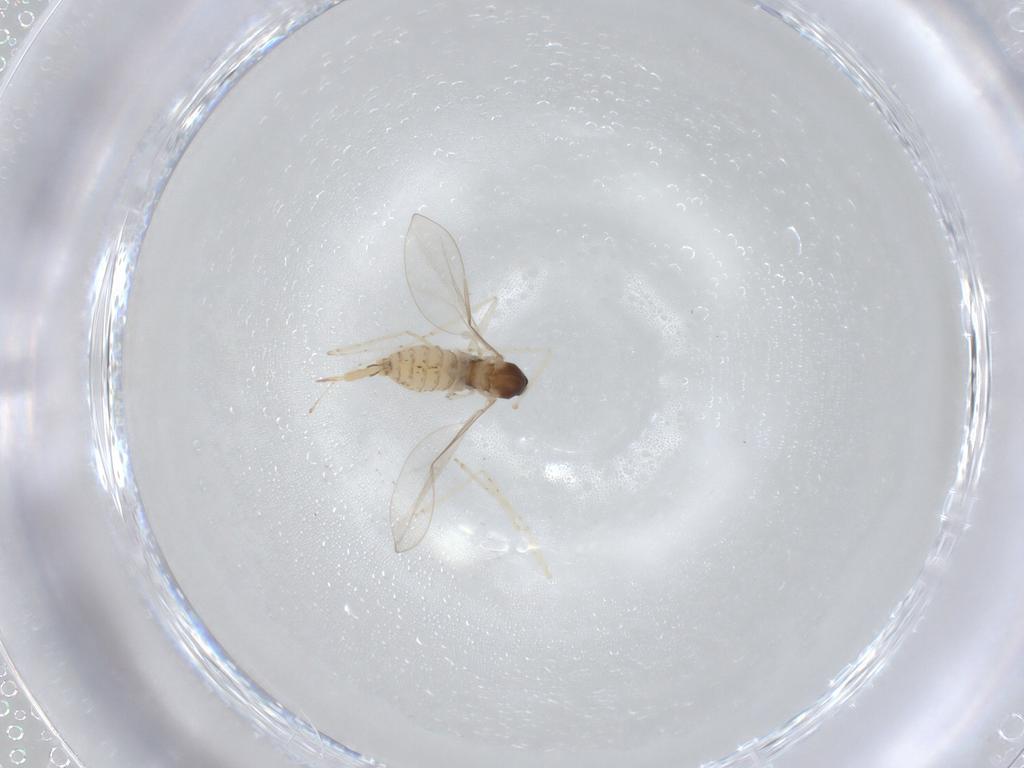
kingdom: Animalia
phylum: Arthropoda
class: Insecta
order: Diptera
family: Cecidomyiidae
